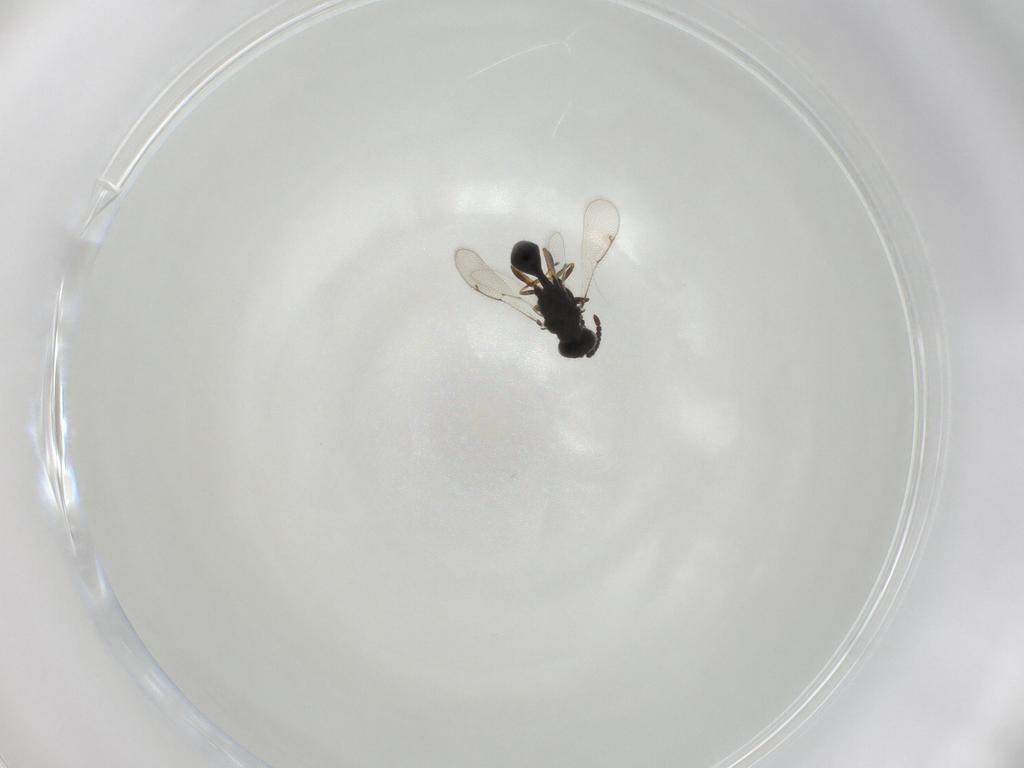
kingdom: Animalia
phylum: Arthropoda
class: Insecta
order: Hymenoptera
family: Spalangiidae
